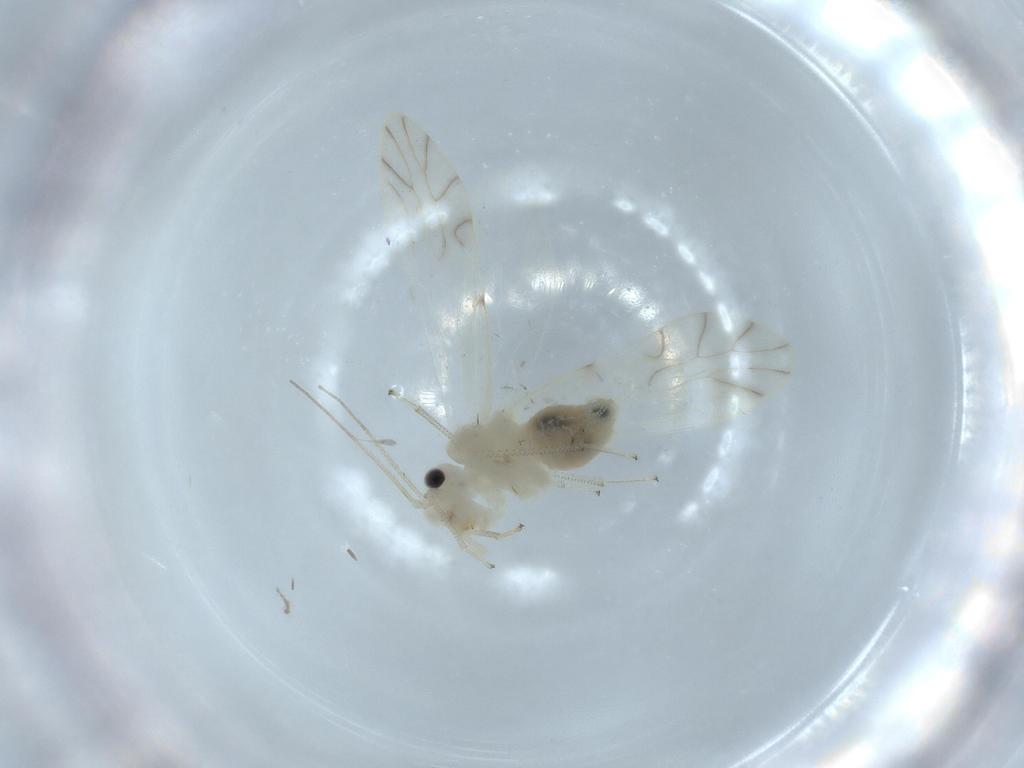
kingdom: Animalia
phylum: Arthropoda
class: Insecta
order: Psocodea
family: Caeciliusidae
